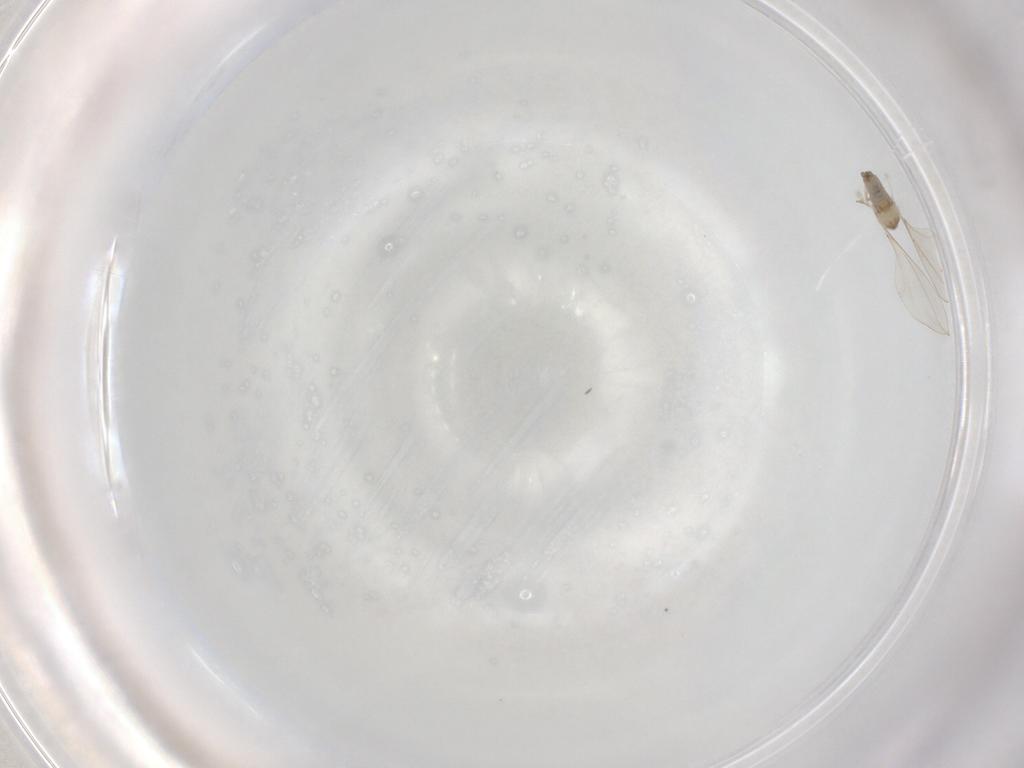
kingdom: Animalia
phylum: Arthropoda
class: Insecta
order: Diptera
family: Cecidomyiidae
